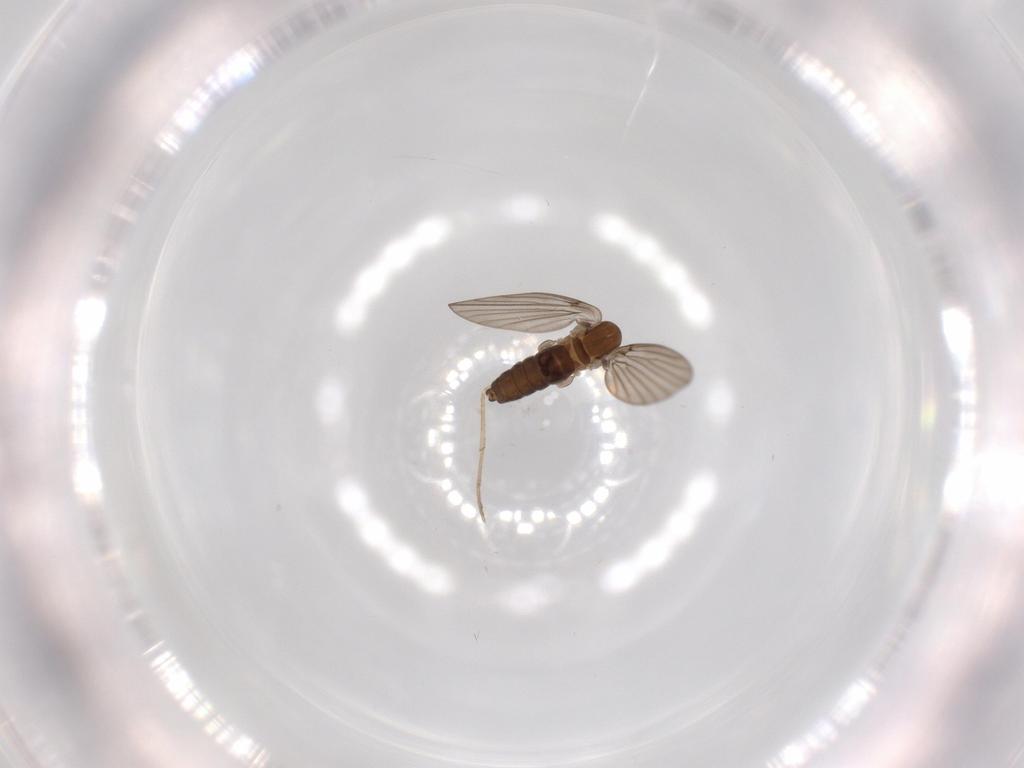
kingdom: Animalia
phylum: Arthropoda
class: Insecta
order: Diptera
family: Psychodidae
